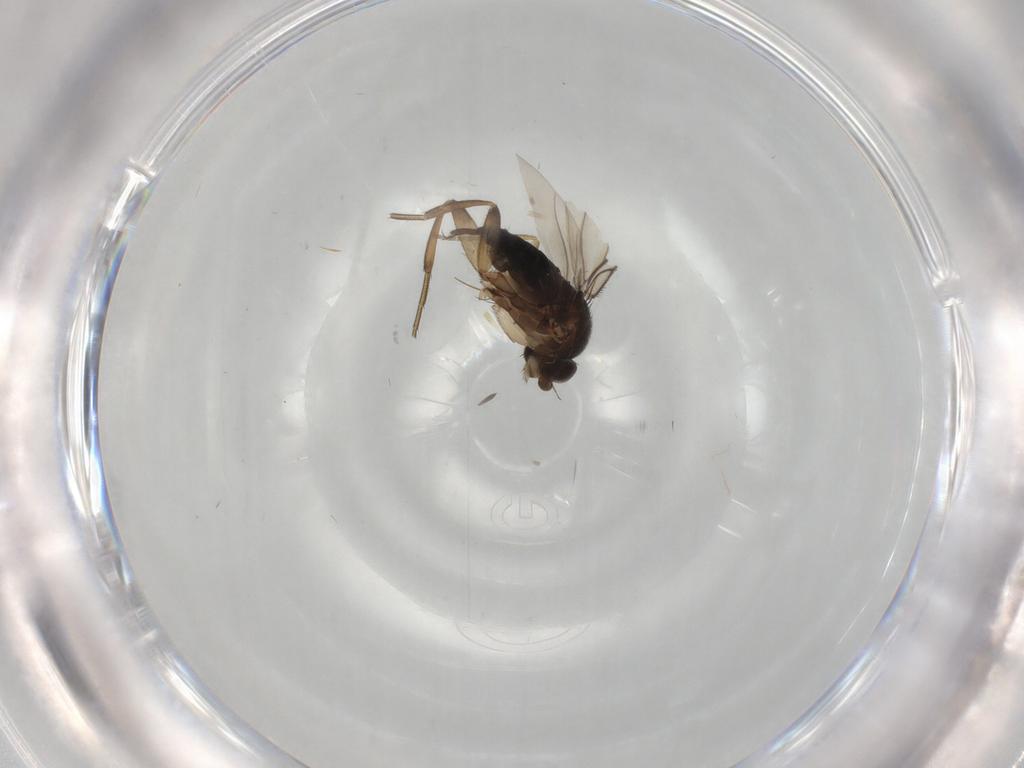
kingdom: Animalia
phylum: Arthropoda
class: Insecta
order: Diptera
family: Phoridae
